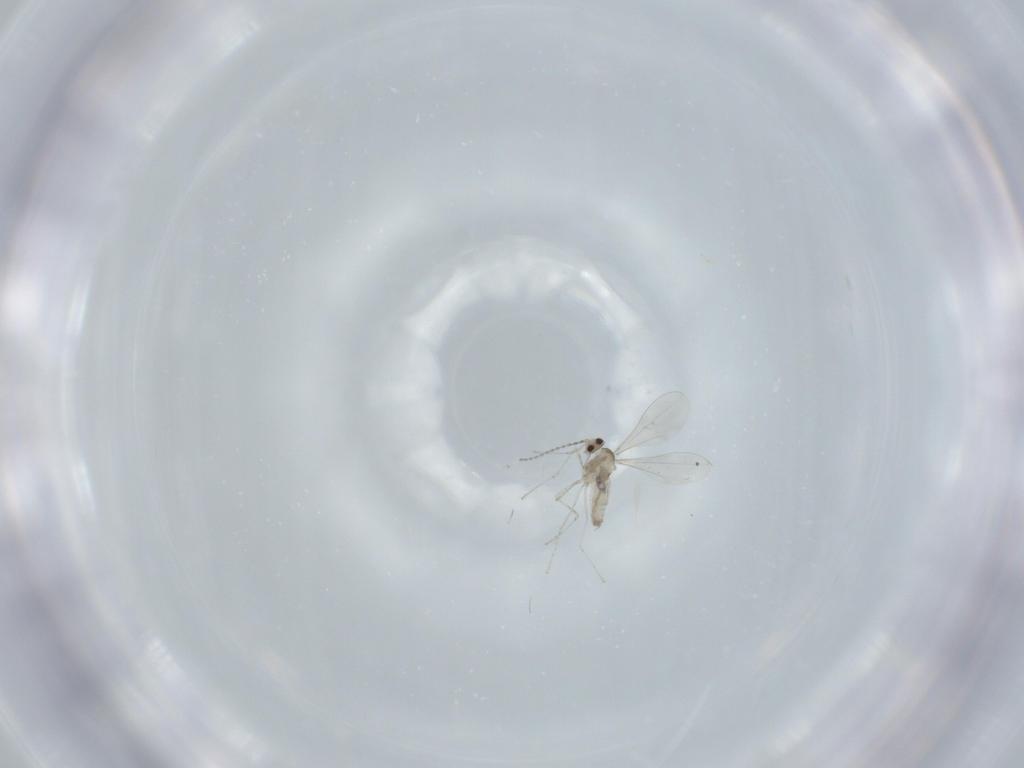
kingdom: Animalia
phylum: Arthropoda
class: Insecta
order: Diptera
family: Cecidomyiidae
